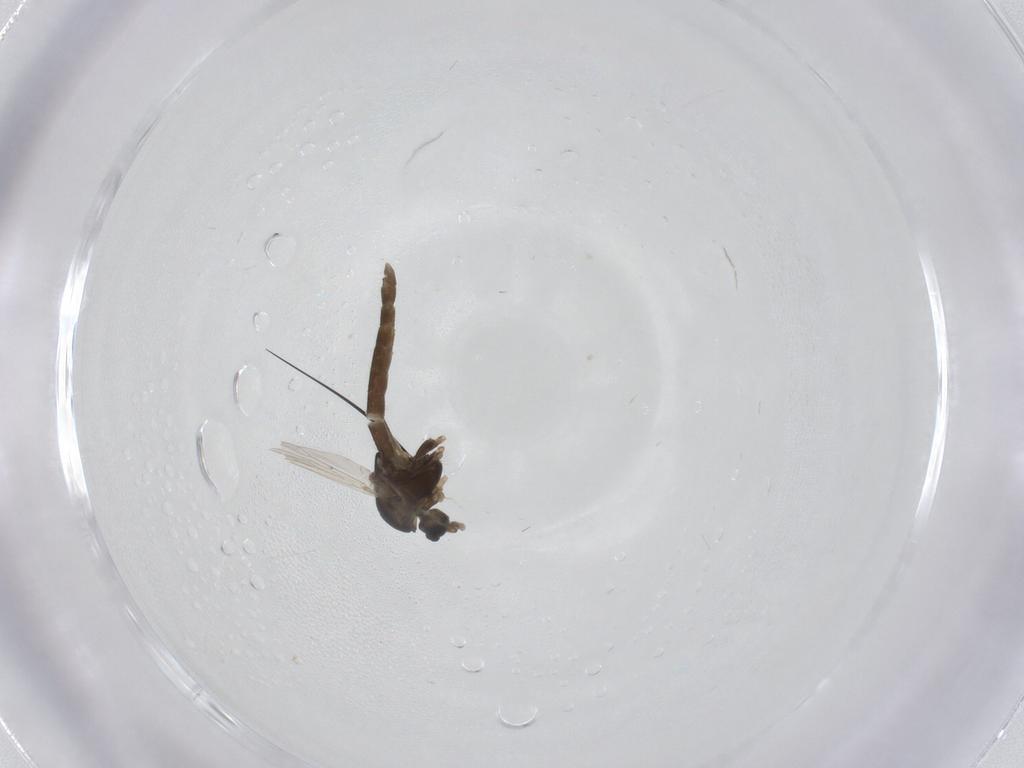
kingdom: Animalia
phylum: Arthropoda
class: Insecta
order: Diptera
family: Chironomidae
